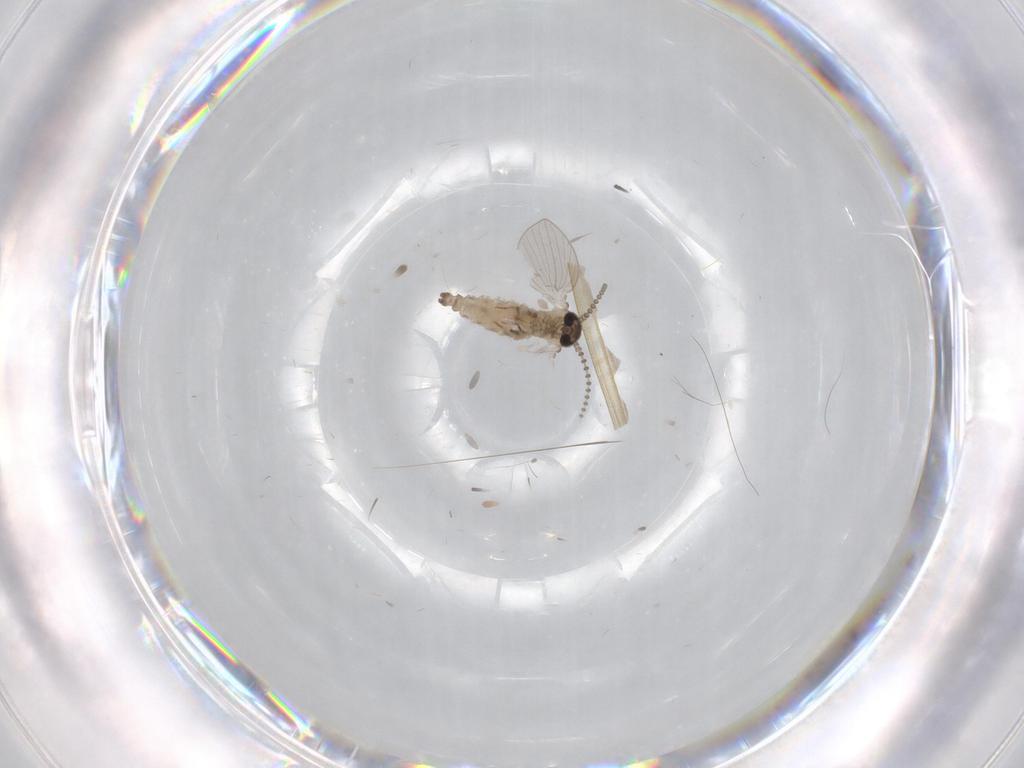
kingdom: Animalia
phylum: Arthropoda
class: Insecta
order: Diptera
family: Psychodidae
